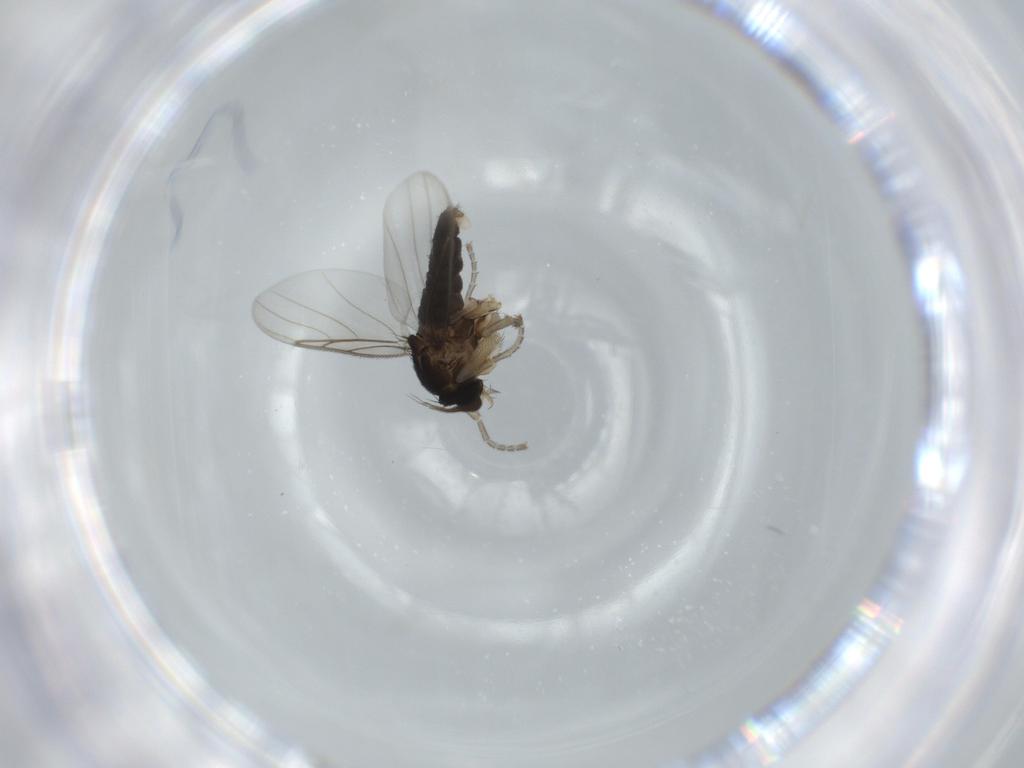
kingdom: Animalia
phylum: Arthropoda
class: Insecta
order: Diptera
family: Phoridae
